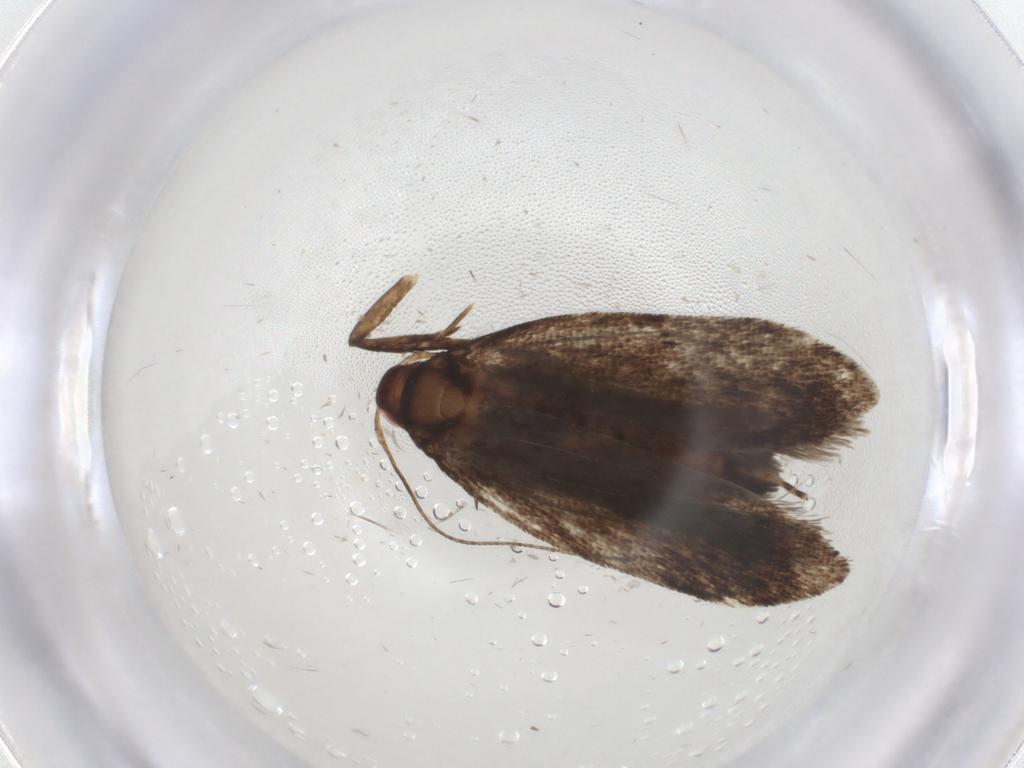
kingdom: Animalia
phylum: Arthropoda
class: Insecta
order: Lepidoptera
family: Gelechiidae
